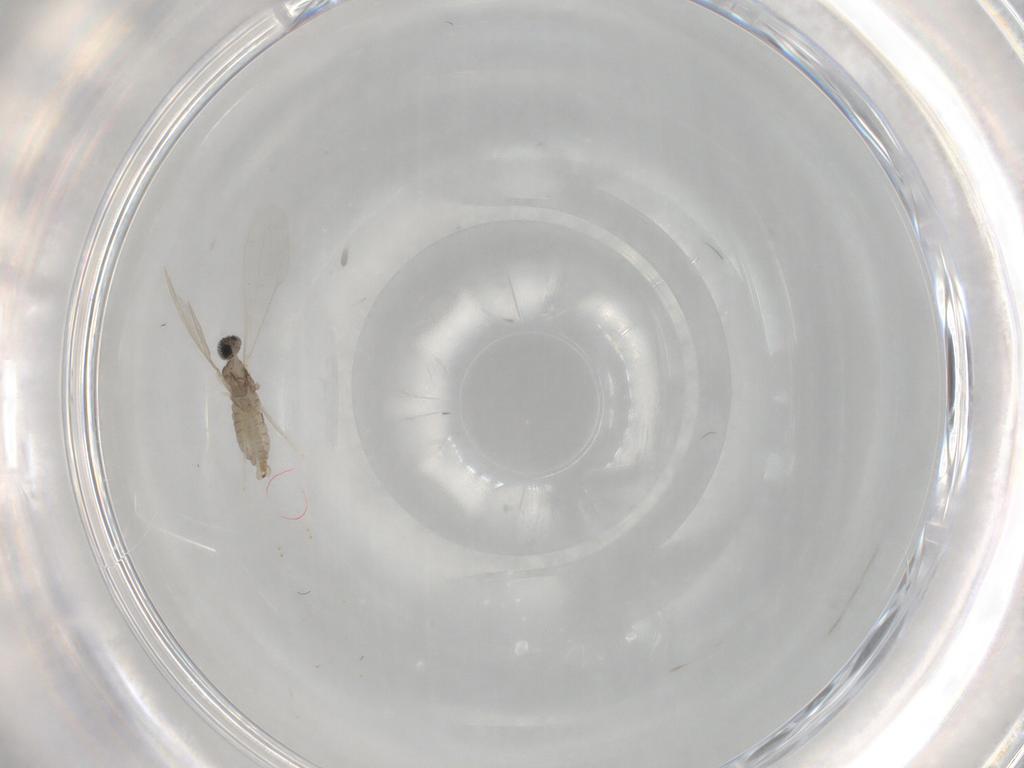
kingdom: Animalia
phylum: Arthropoda
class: Insecta
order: Diptera
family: Cecidomyiidae
